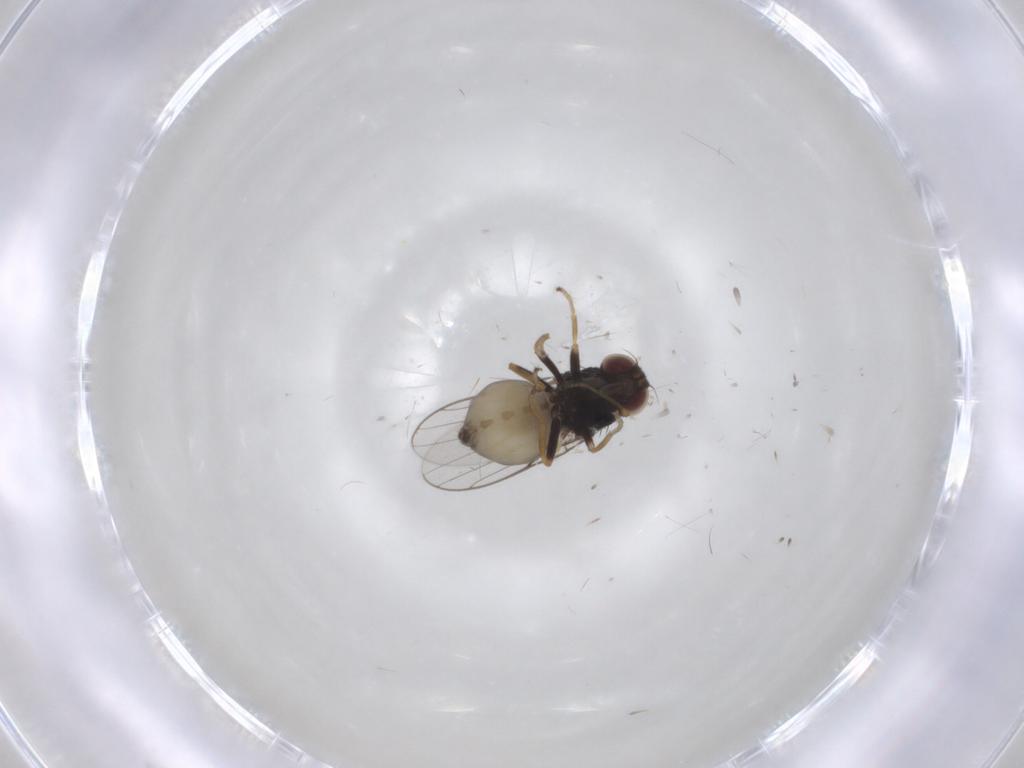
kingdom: Animalia
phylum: Arthropoda
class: Insecta
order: Diptera
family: Chloropidae
